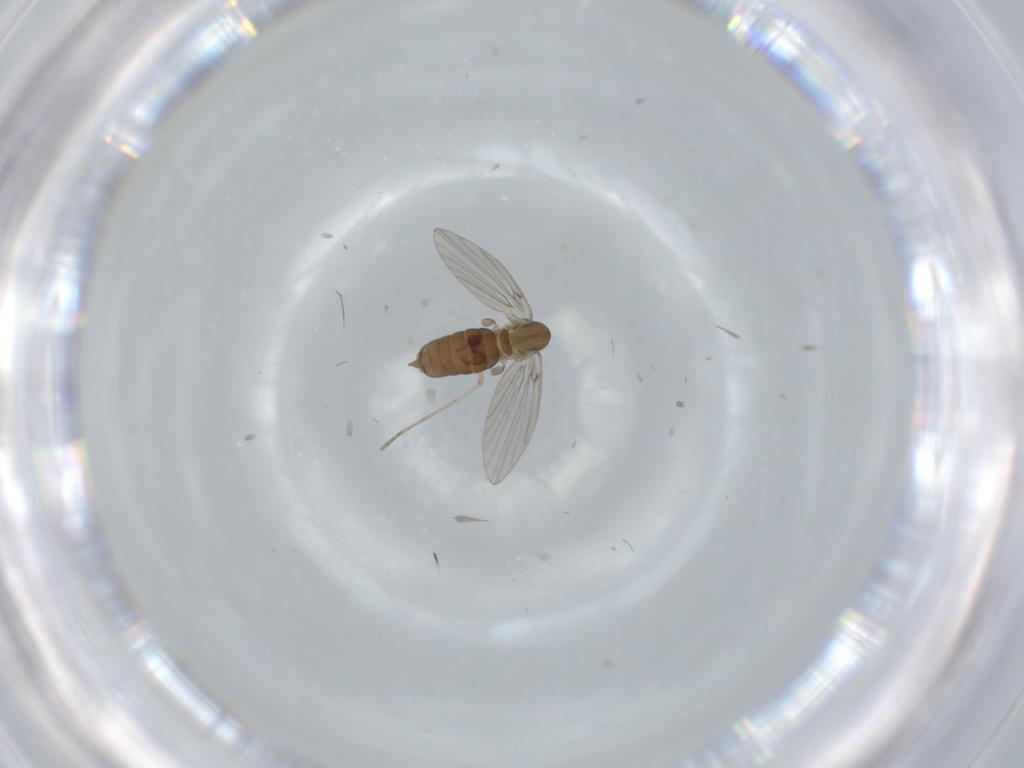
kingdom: Animalia
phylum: Arthropoda
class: Insecta
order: Diptera
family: Chironomidae
